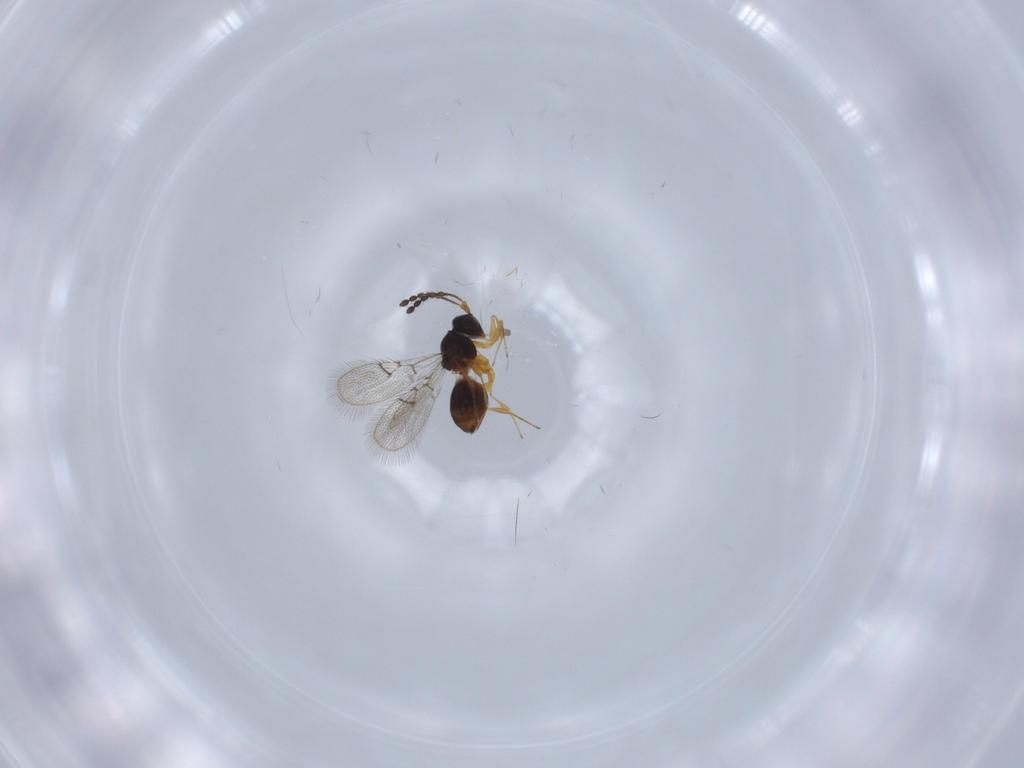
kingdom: Animalia
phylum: Arthropoda
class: Insecta
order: Hymenoptera
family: Figitidae
